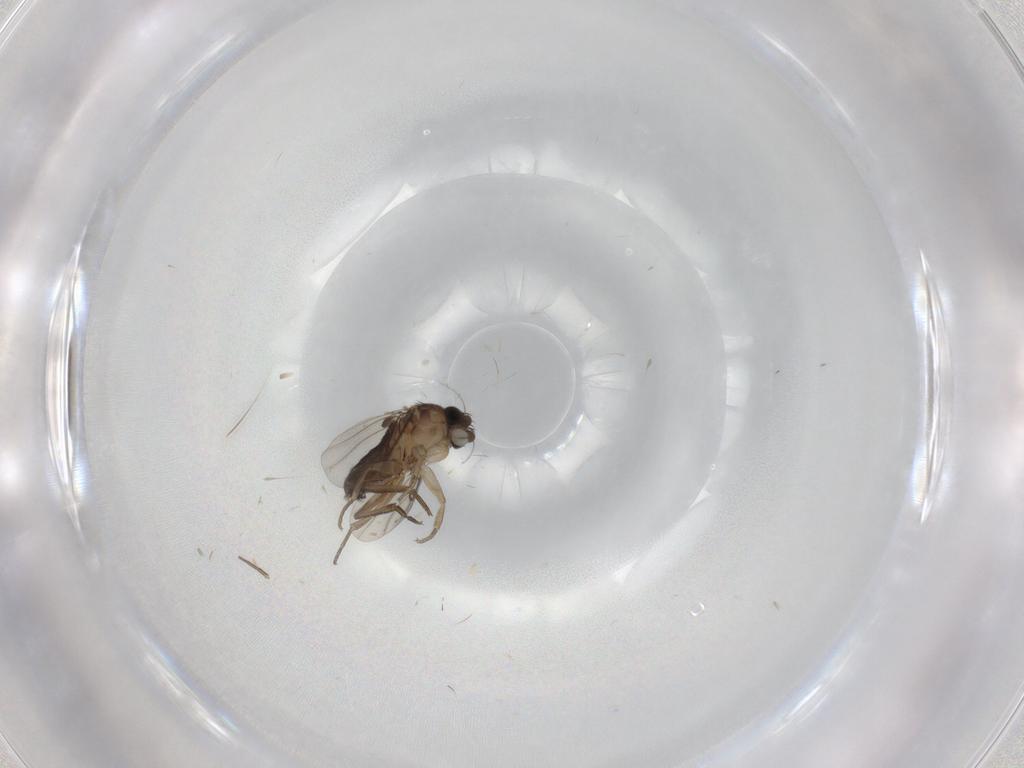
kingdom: Animalia
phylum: Arthropoda
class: Insecta
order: Diptera
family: Phoridae
